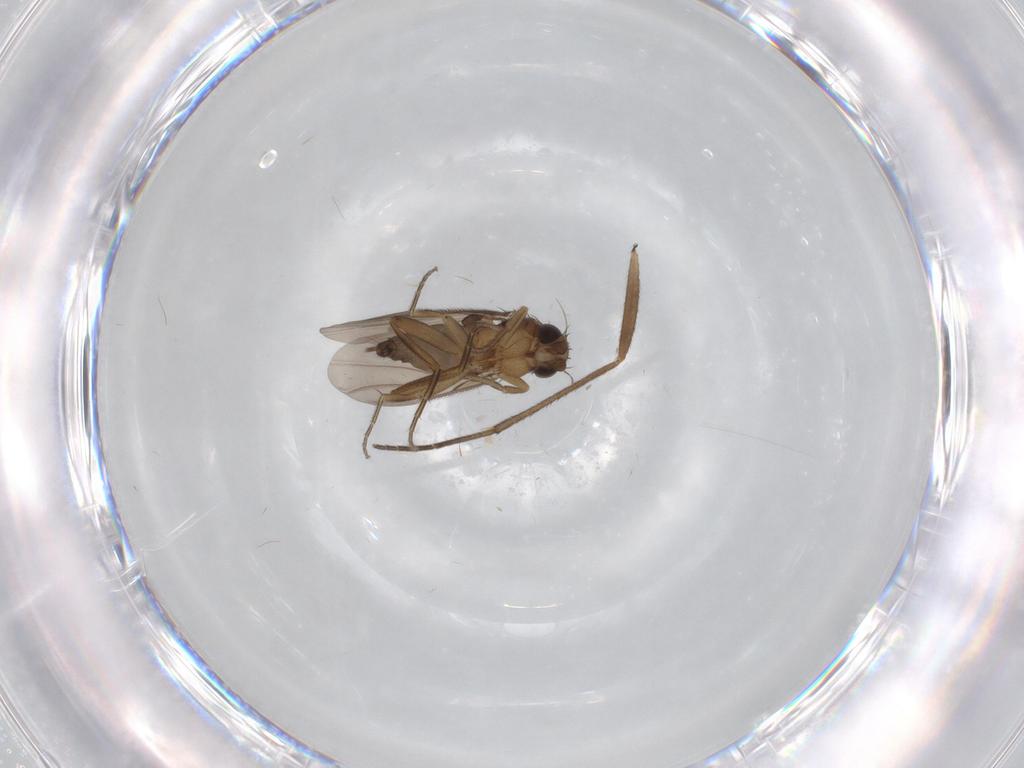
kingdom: Animalia
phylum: Arthropoda
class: Insecta
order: Diptera
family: Phoridae
